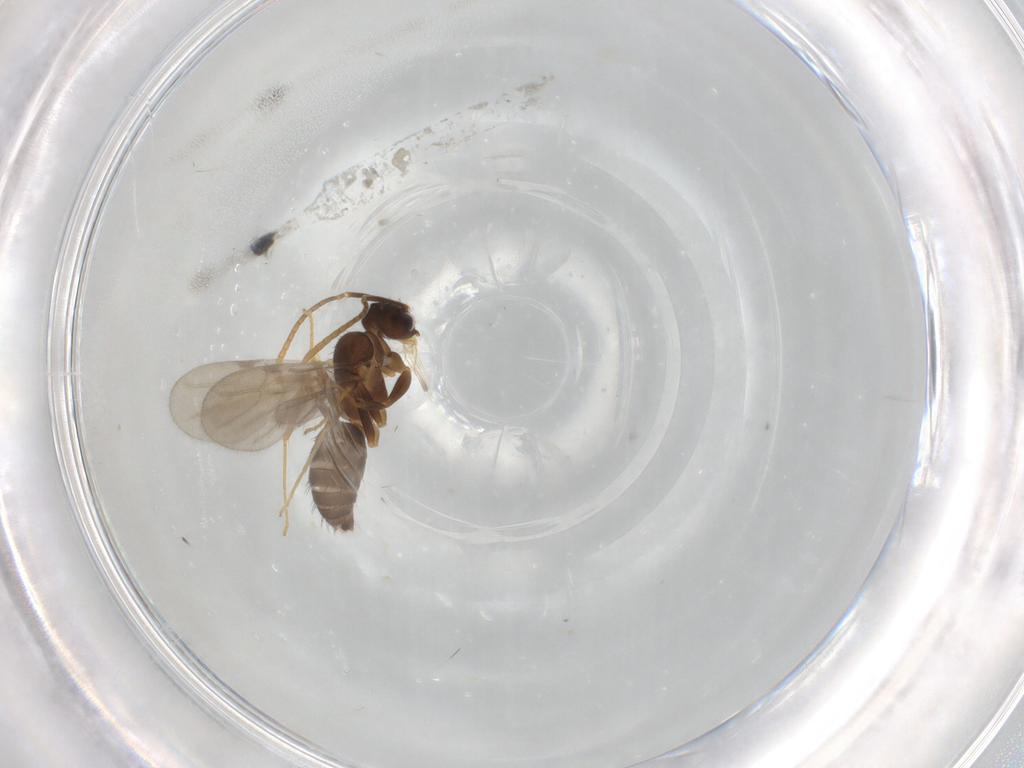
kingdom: Animalia
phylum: Arthropoda
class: Insecta
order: Hymenoptera
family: Formicidae
